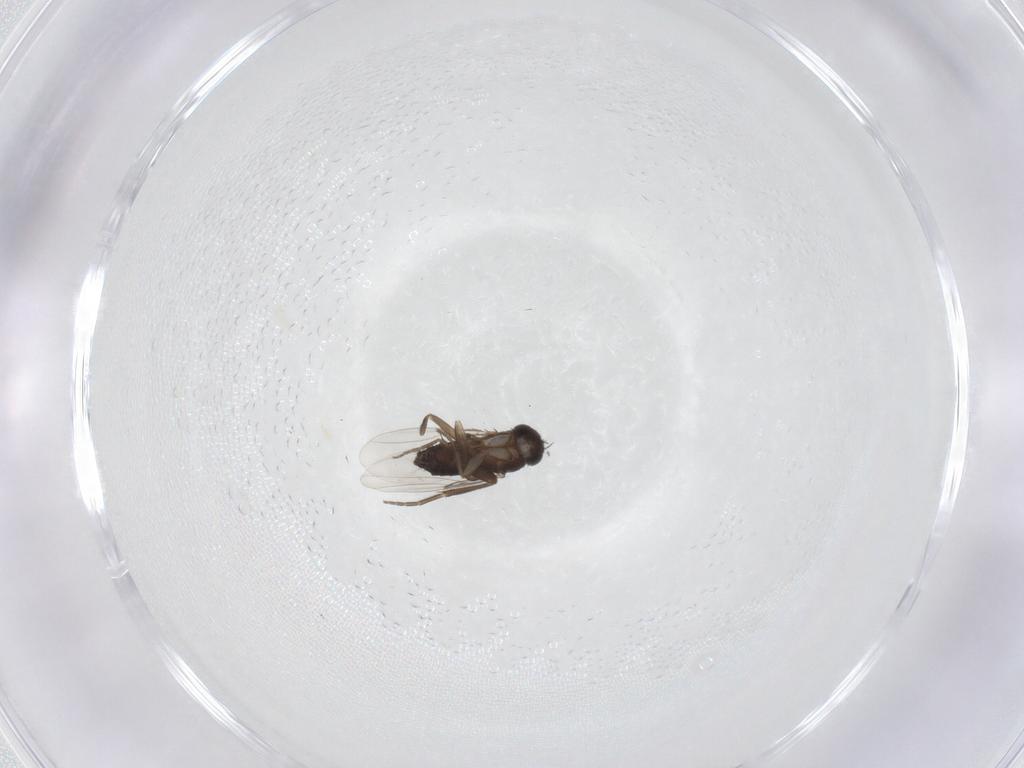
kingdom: Animalia
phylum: Arthropoda
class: Insecta
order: Diptera
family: Phoridae
